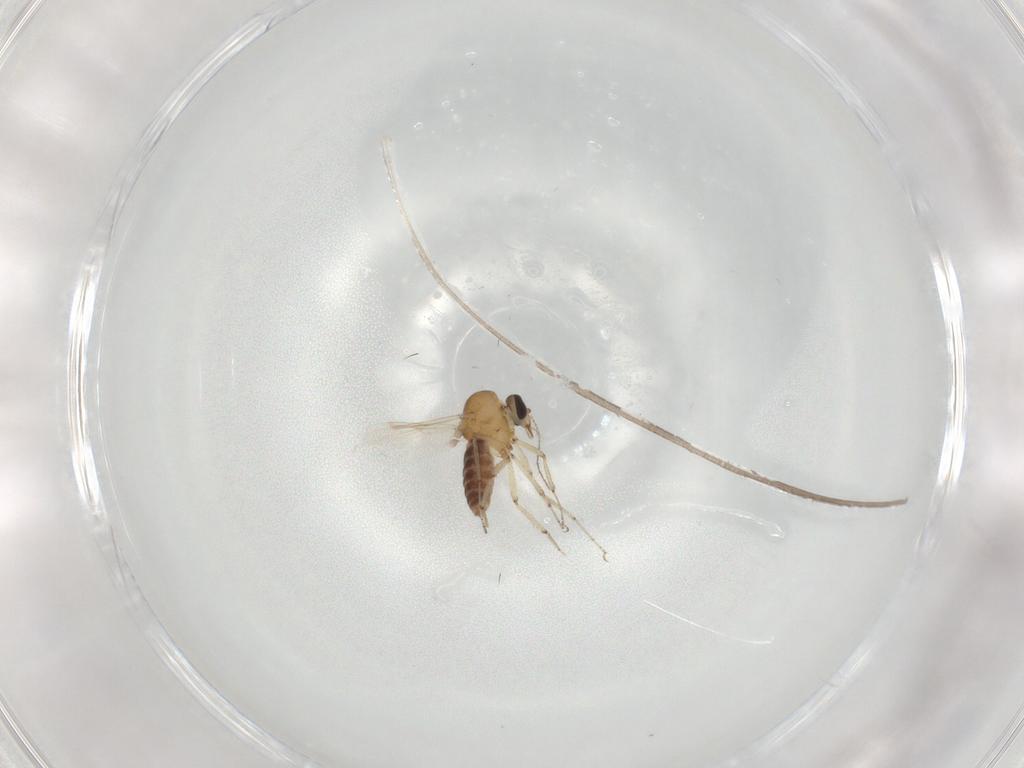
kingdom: Animalia
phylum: Arthropoda
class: Insecta
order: Diptera
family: Ceratopogonidae
